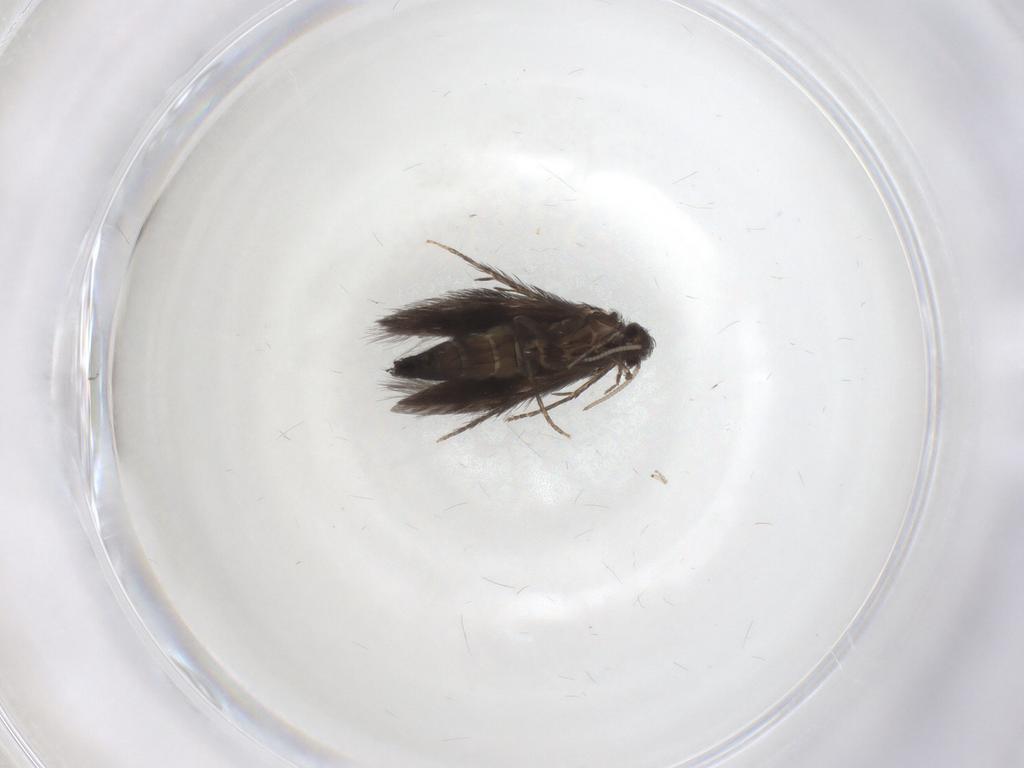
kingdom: Animalia
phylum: Arthropoda
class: Insecta
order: Trichoptera
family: Hydroptilidae
